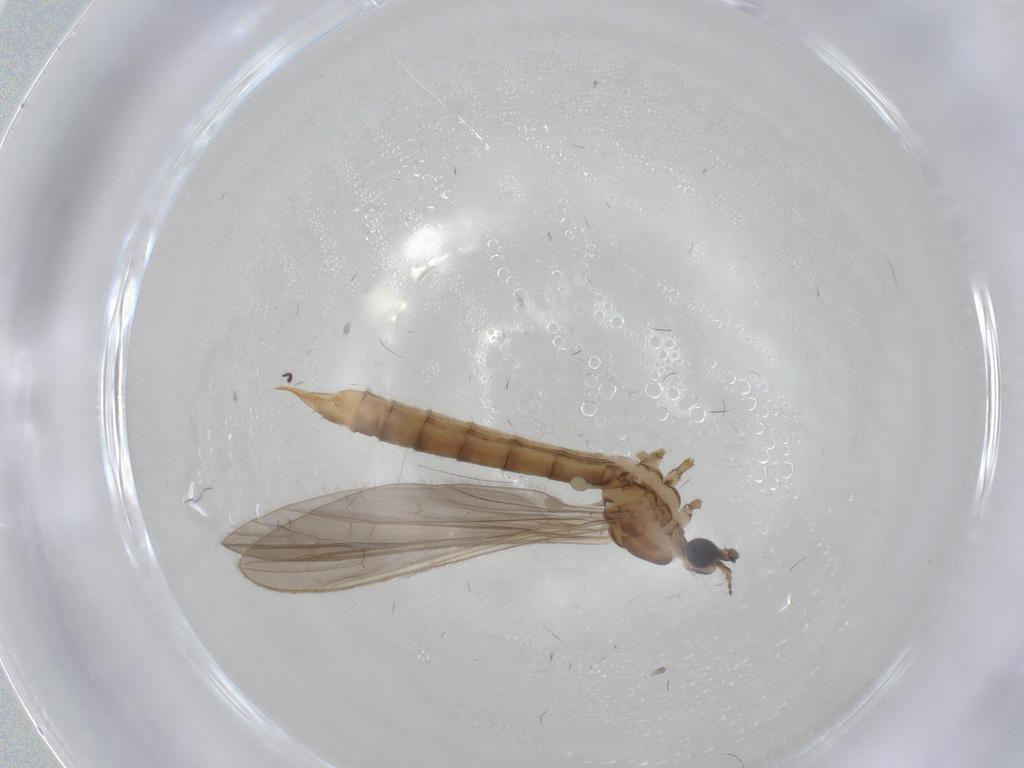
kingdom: Animalia
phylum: Arthropoda
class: Insecta
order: Diptera
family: Limoniidae
